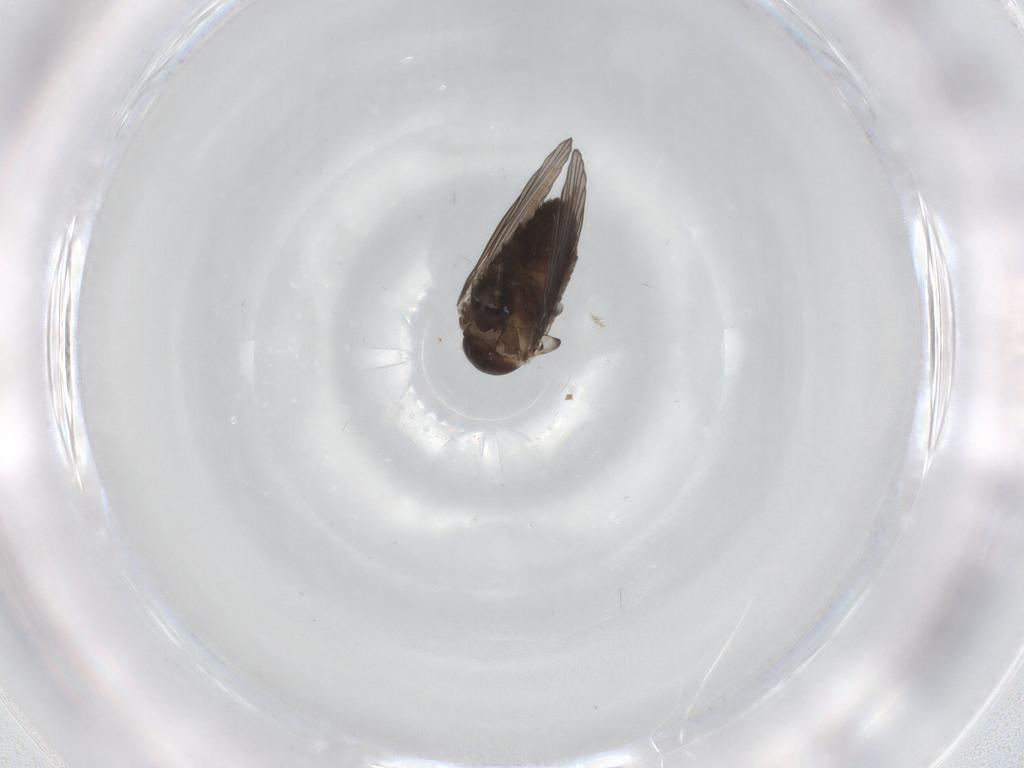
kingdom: Animalia
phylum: Arthropoda
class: Insecta
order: Diptera
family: Psychodidae
